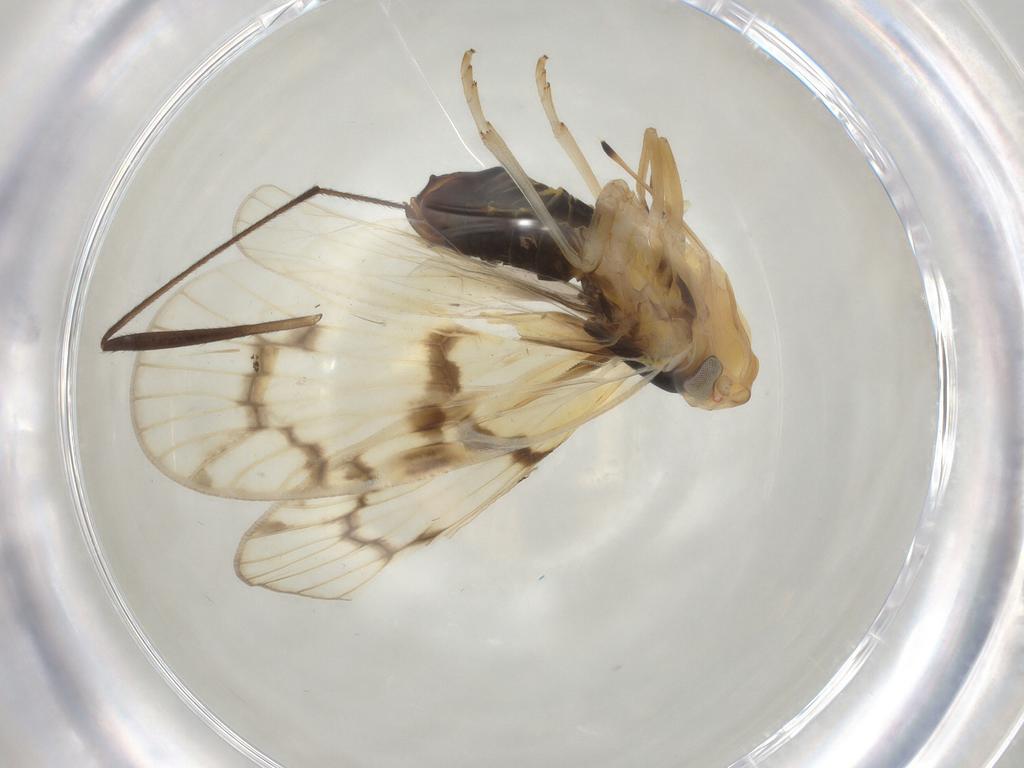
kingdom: Animalia
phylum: Arthropoda
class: Insecta
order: Hemiptera
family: Cixiidae
